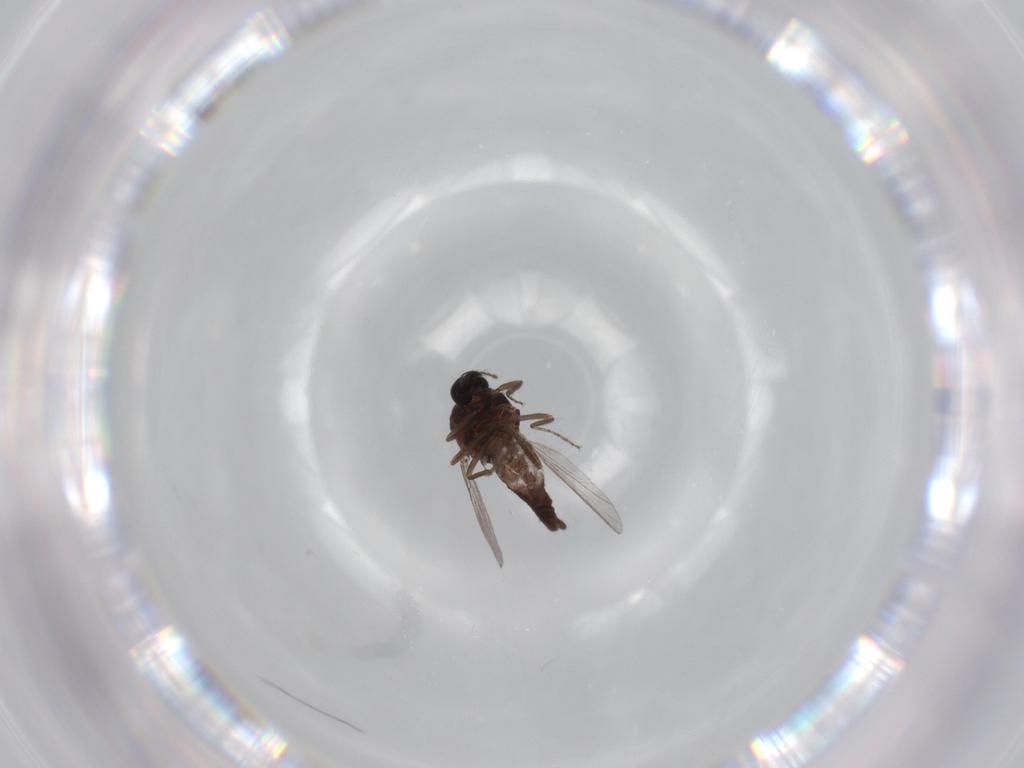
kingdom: Animalia
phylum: Arthropoda
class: Insecta
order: Diptera
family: Ceratopogonidae
